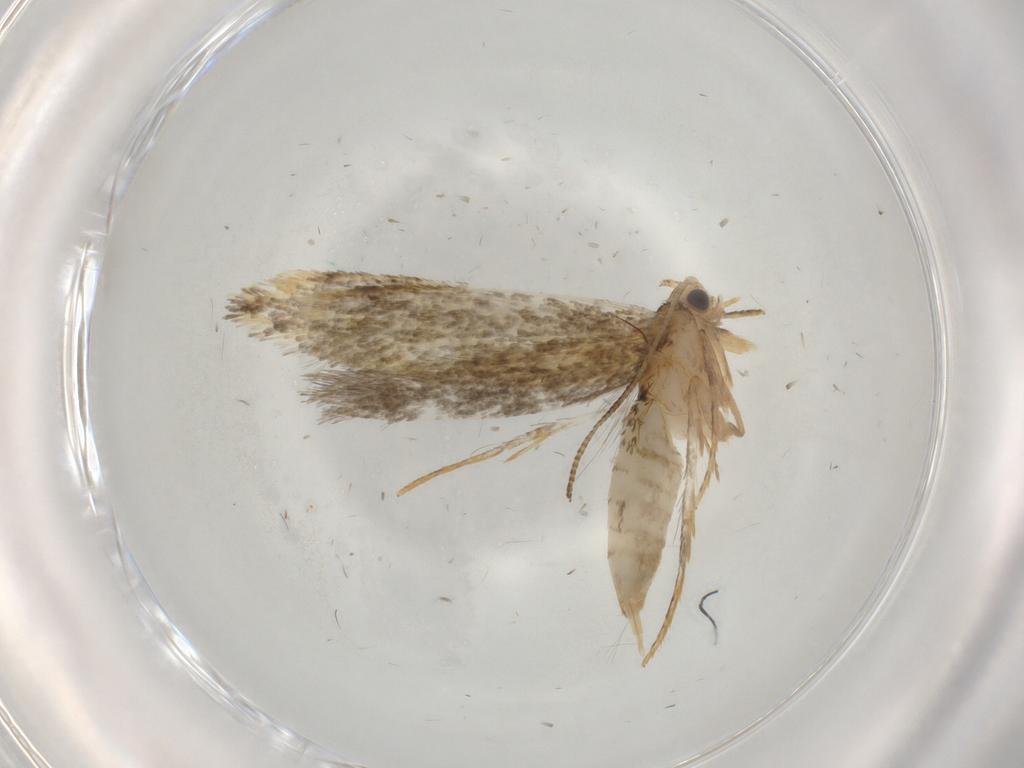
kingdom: Animalia
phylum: Arthropoda
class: Insecta
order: Lepidoptera
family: Tineidae
